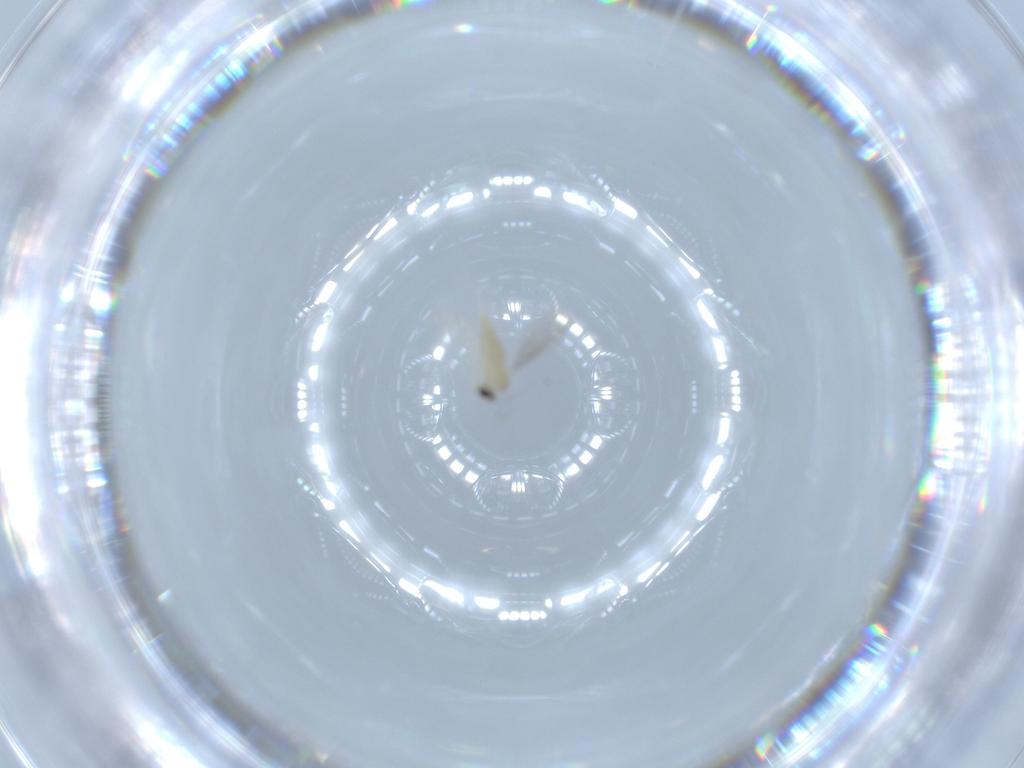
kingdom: Animalia
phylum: Arthropoda
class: Insecta
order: Diptera
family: Cecidomyiidae
